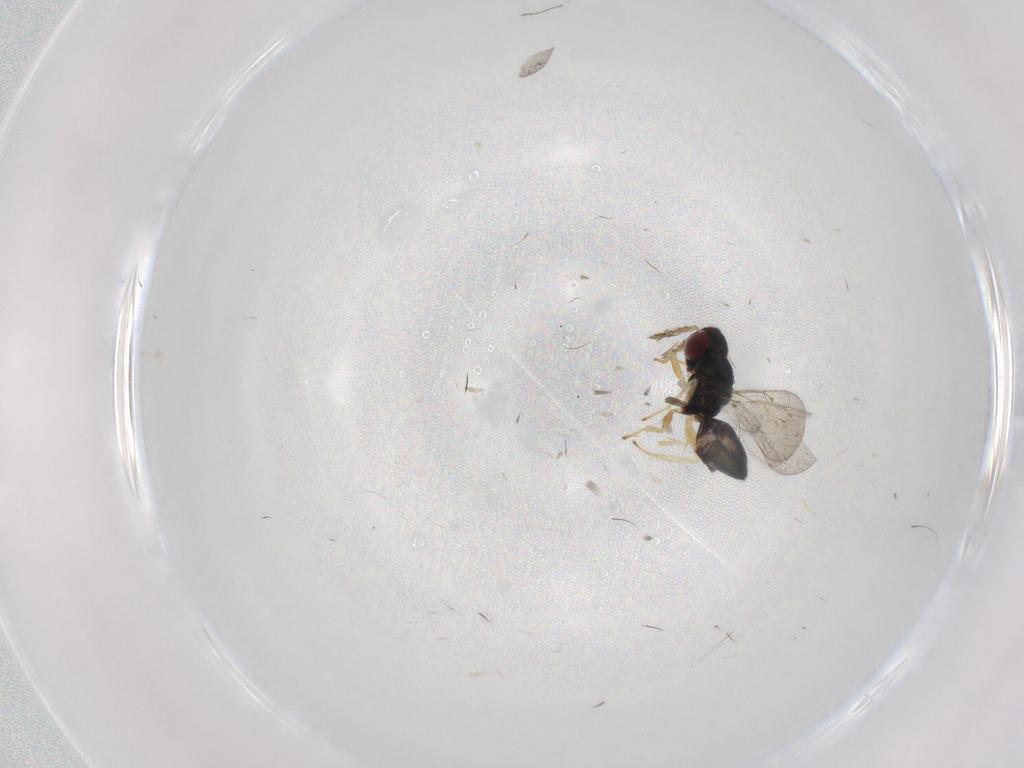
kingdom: Animalia
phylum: Arthropoda
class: Insecta
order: Hymenoptera
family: Eulophidae
